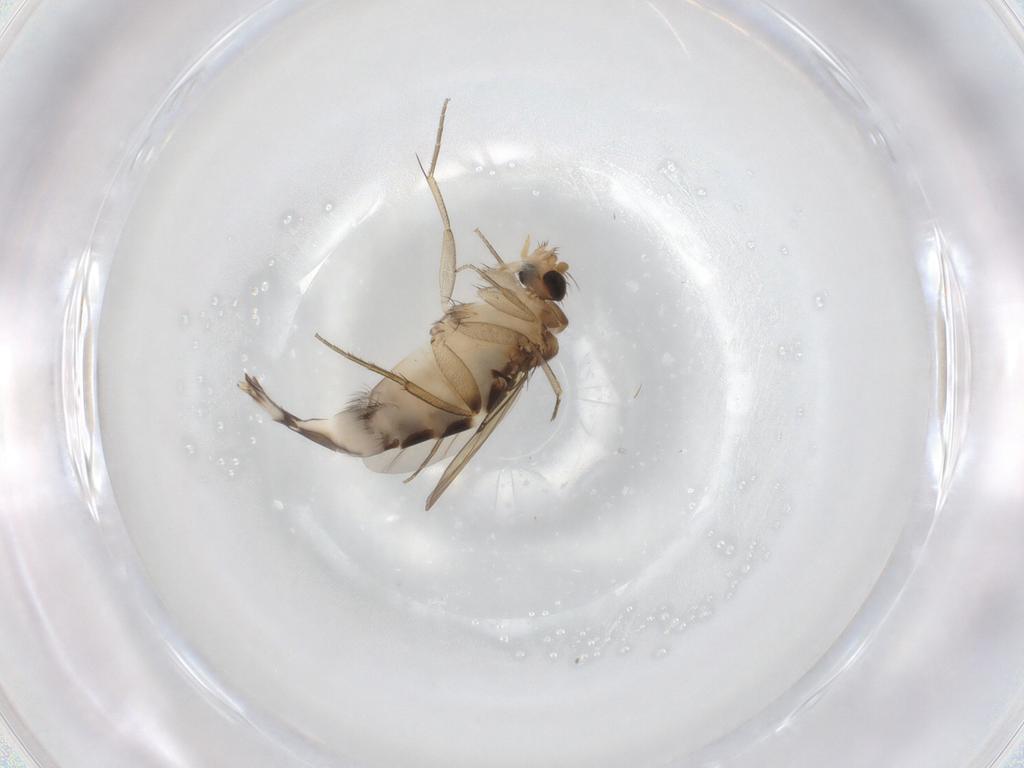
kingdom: Animalia
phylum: Arthropoda
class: Insecta
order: Diptera
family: Phoridae
